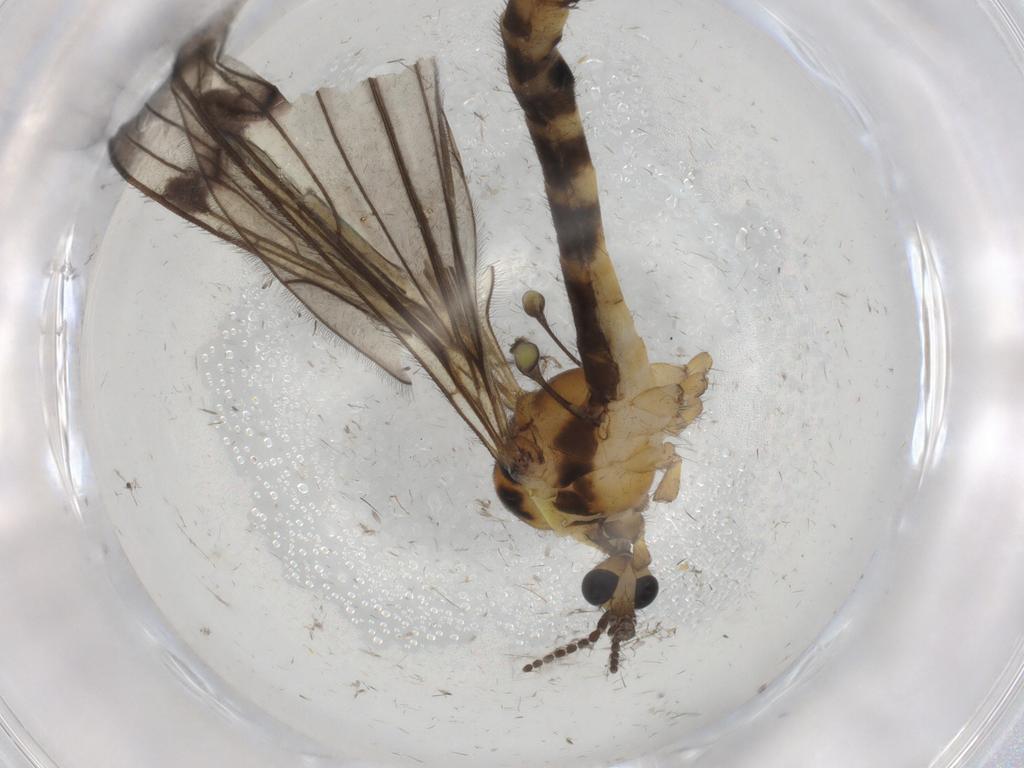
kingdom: Animalia
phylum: Arthropoda
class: Insecta
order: Diptera
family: Limoniidae
